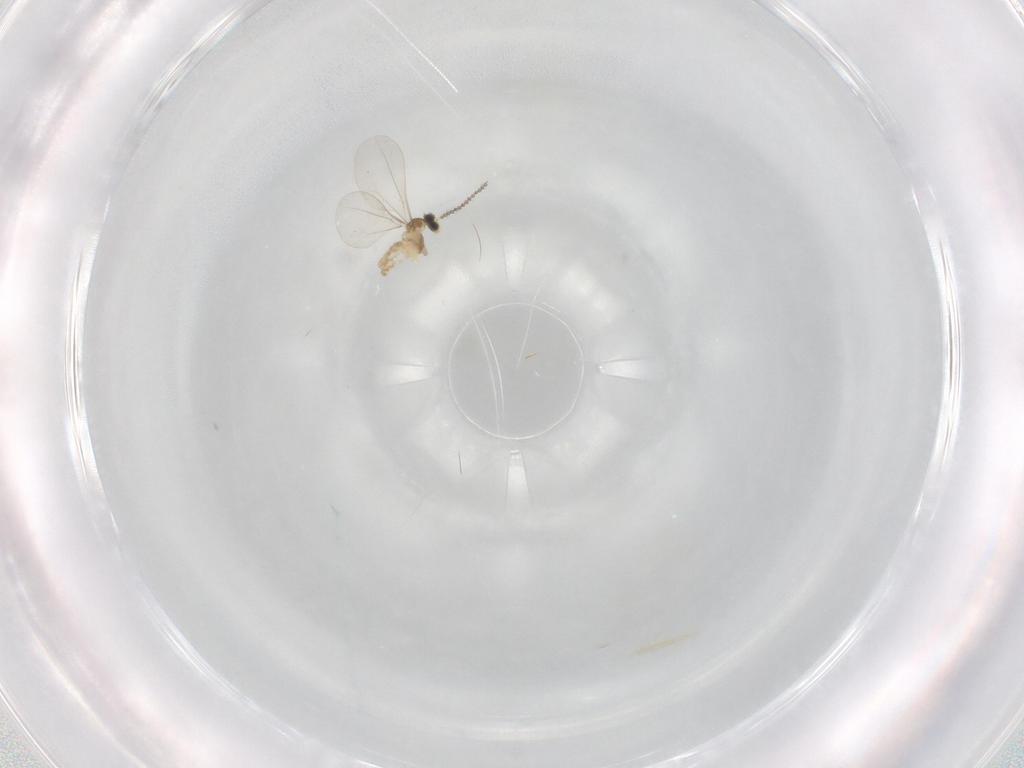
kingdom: Animalia
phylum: Arthropoda
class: Insecta
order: Diptera
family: Cecidomyiidae
